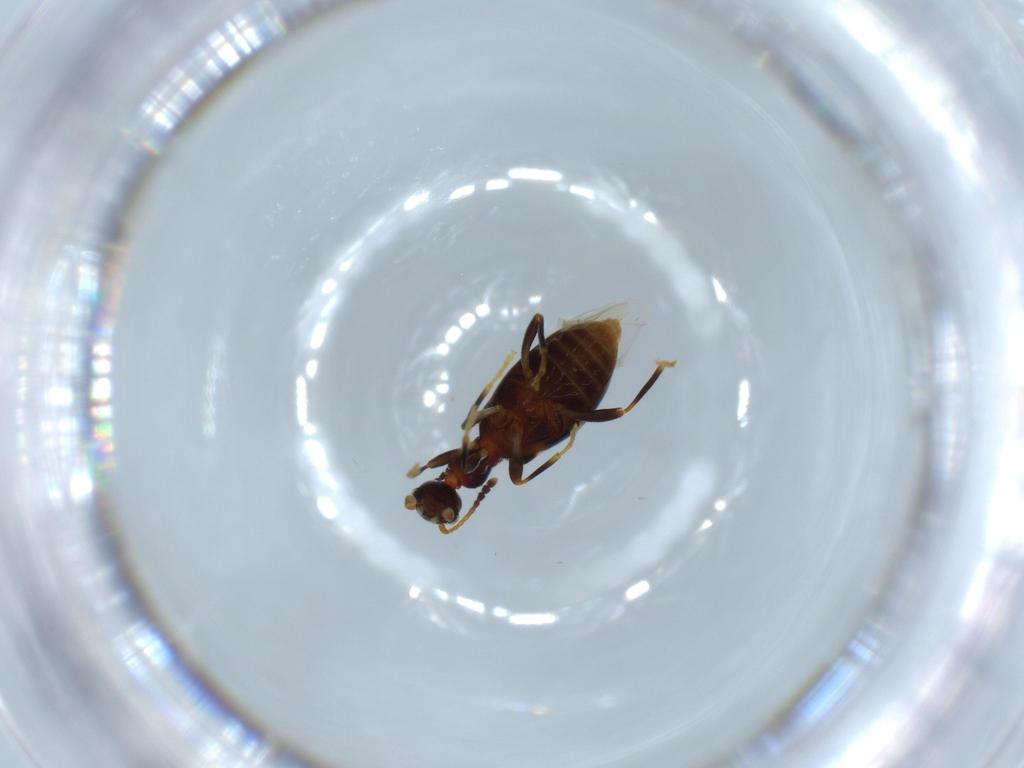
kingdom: Animalia
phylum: Arthropoda
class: Insecta
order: Coleoptera
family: Anthicidae
